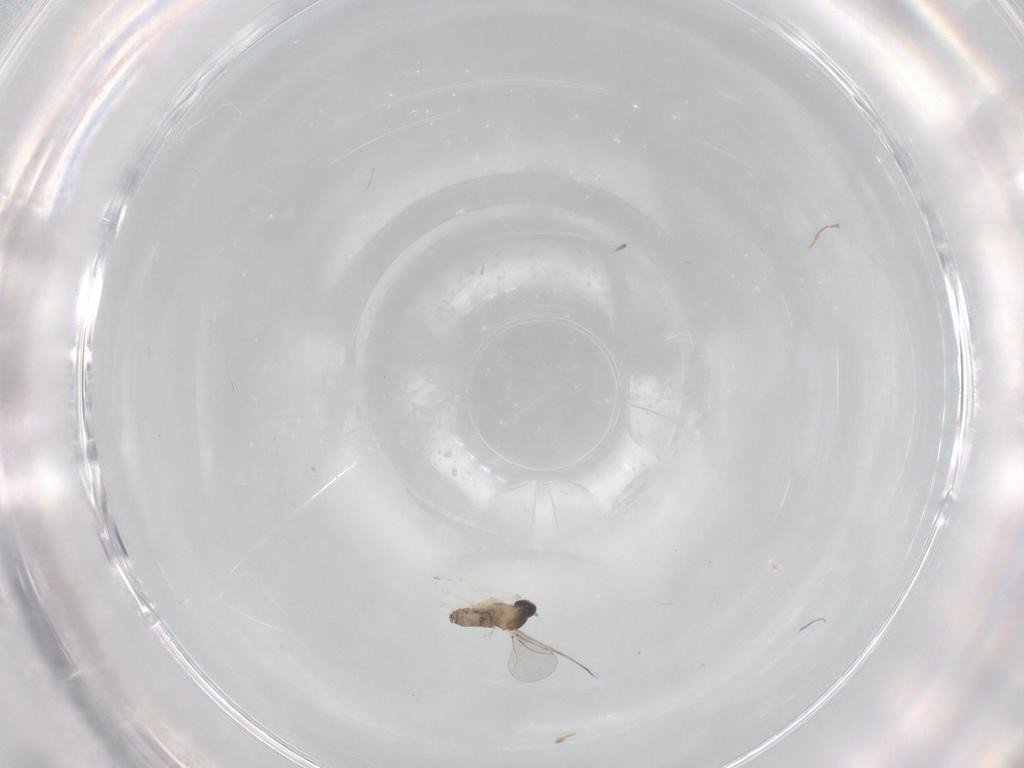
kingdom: Animalia
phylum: Arthropoda
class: Insecta
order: Diptera
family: Cecidomyiidae
